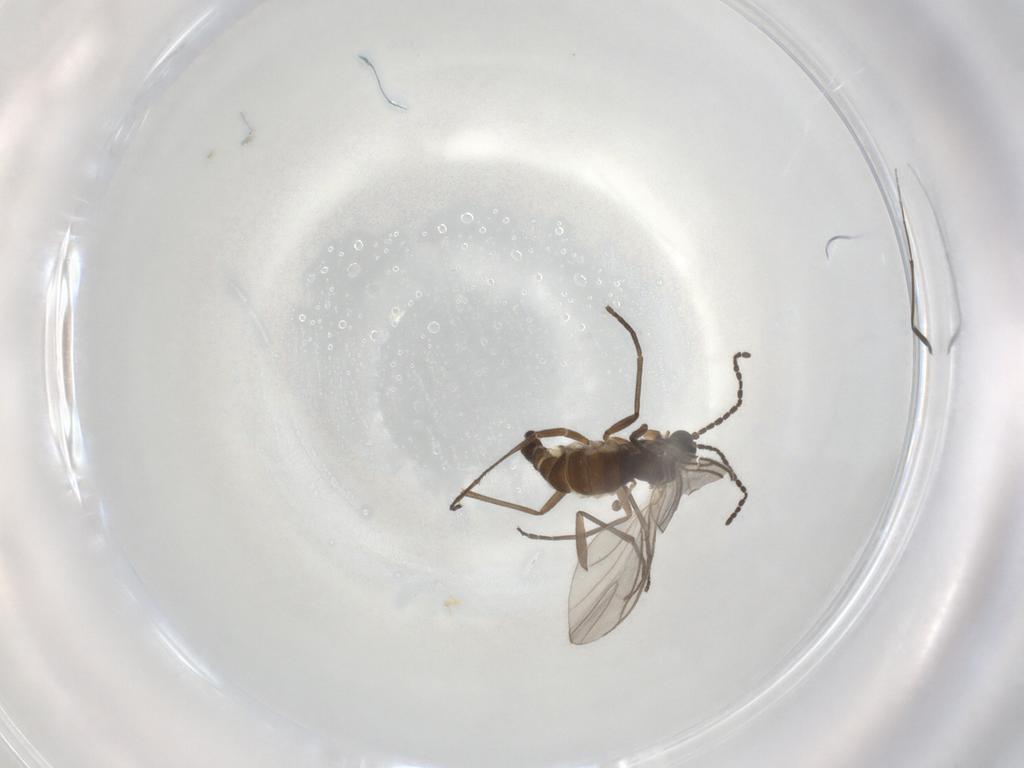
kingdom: Animalia
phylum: Arthropoda
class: Insecta
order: Diptera
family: Sciaridae
